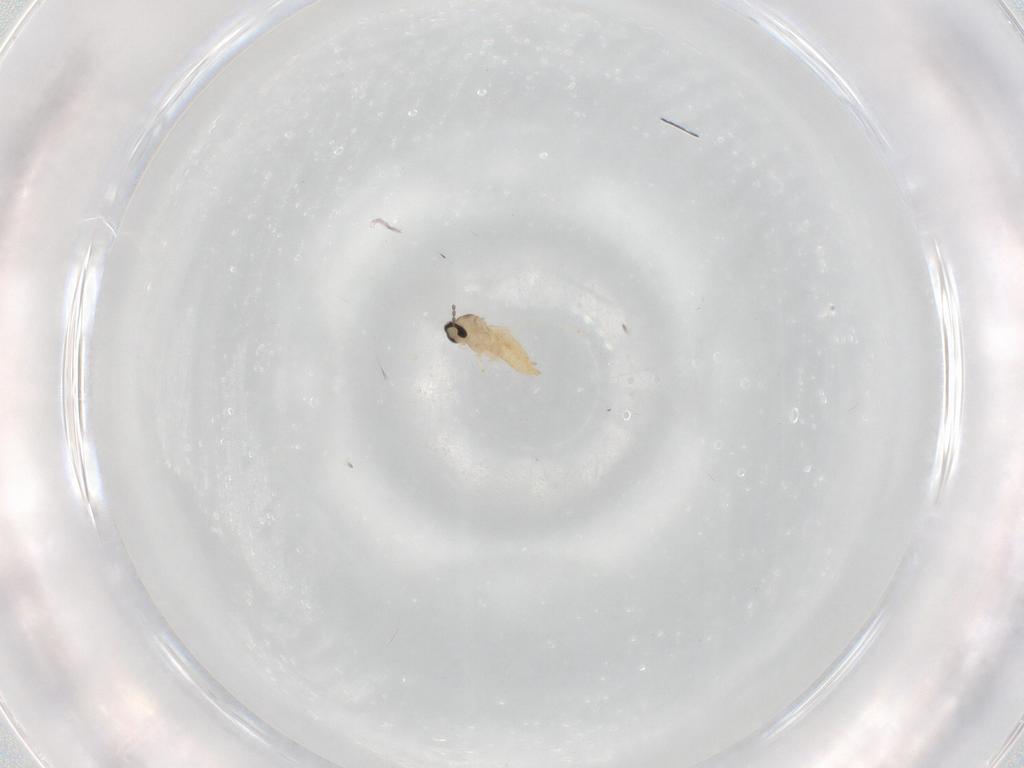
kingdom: Animalia
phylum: Arthropoda
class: Insecta
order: Diptera
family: Cecidomyiidae
